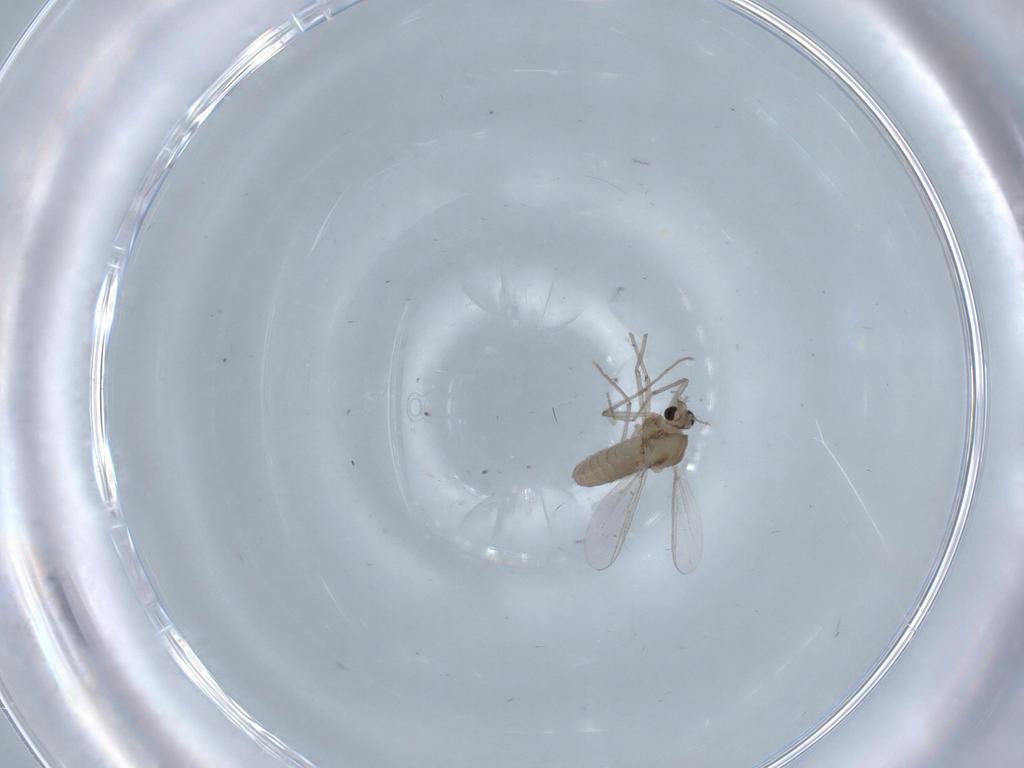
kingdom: Animalia
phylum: Arthropoda
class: Insecta
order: Diptera
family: Chironomidae
